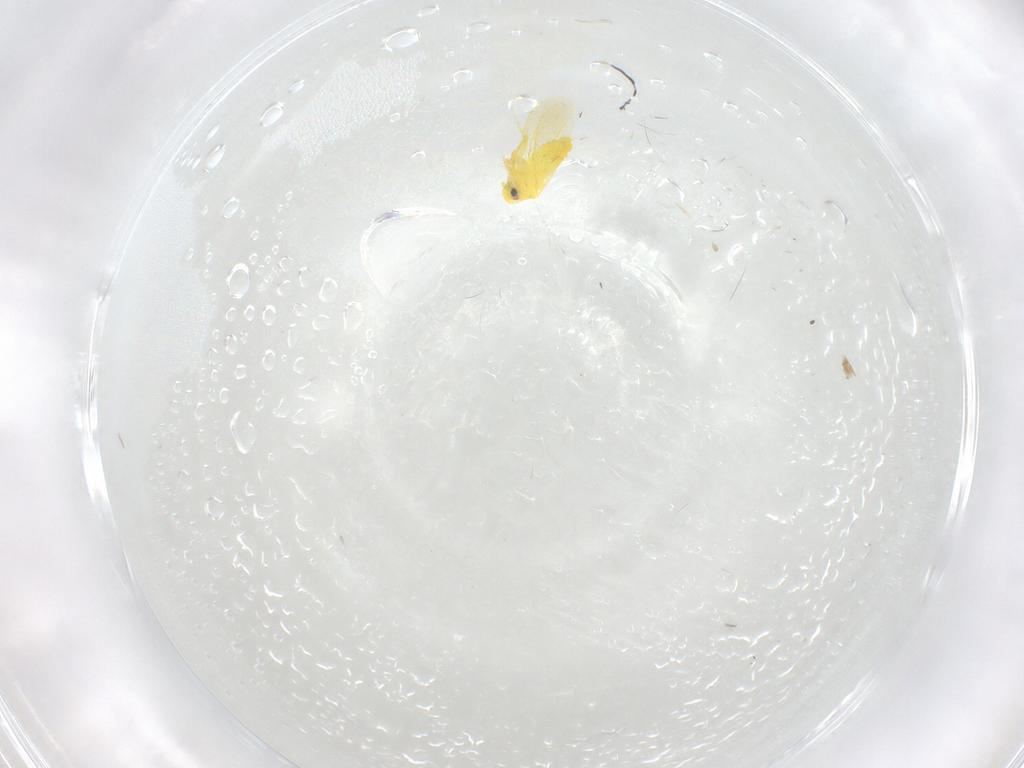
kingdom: Animalia
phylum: Arthropoda
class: Insecta
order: Hemiptera
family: Aleyrodidae
